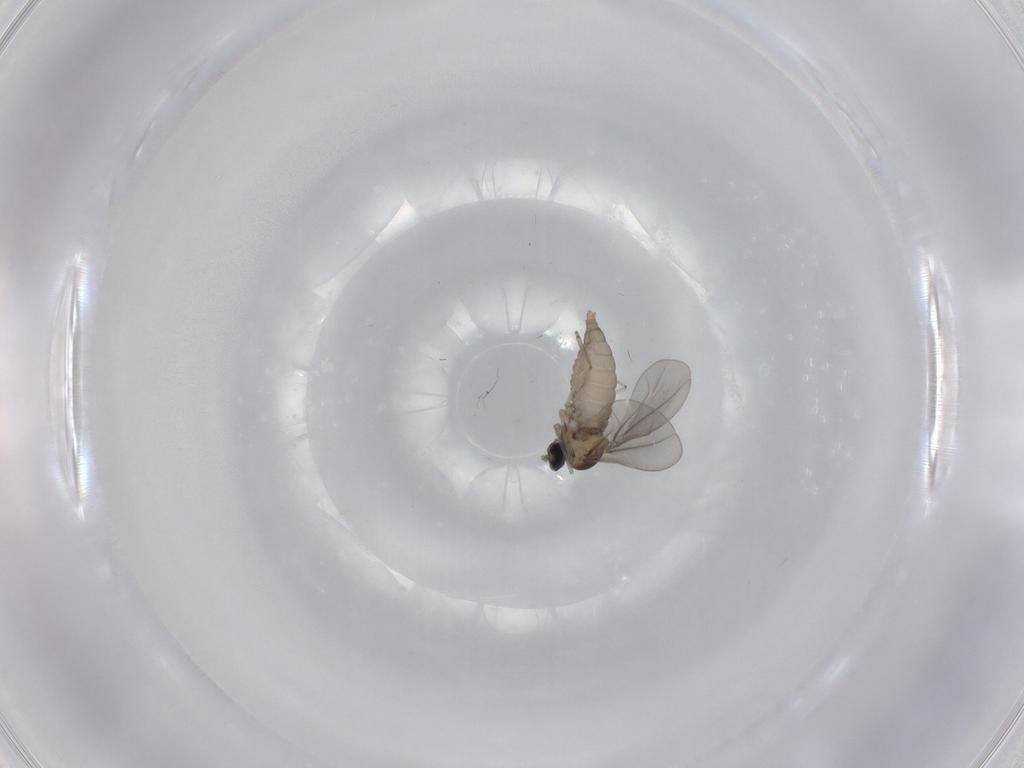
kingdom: Animalia
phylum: Arthropoda
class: Insecta
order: Diptera
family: Cecidomyiidae
